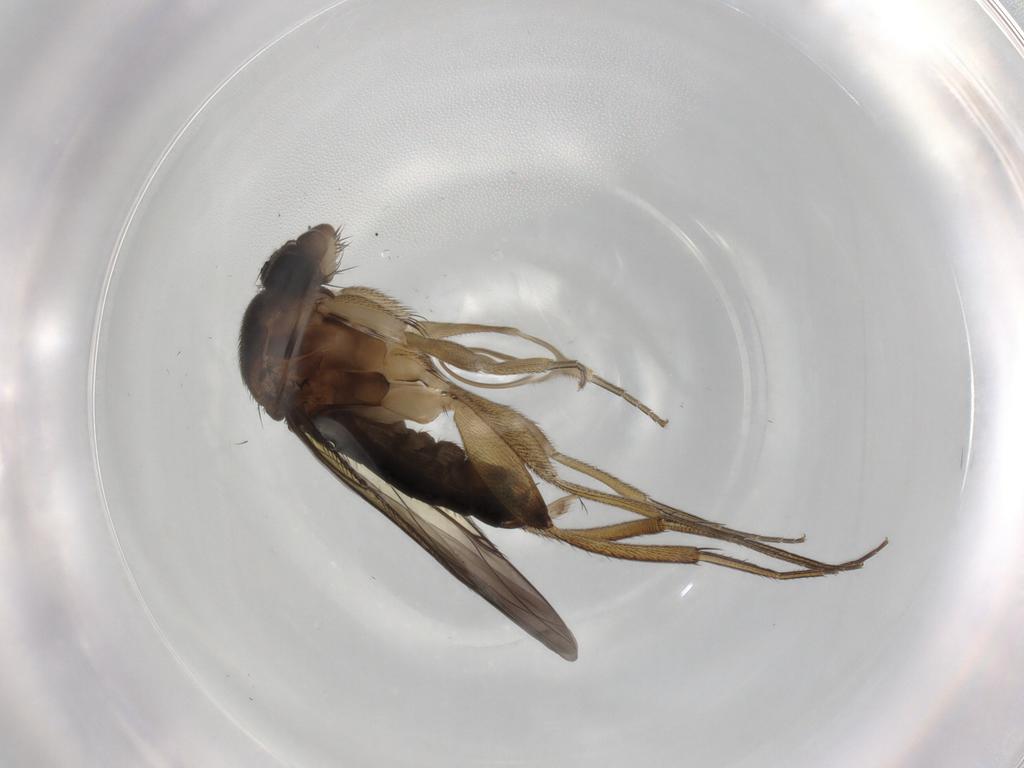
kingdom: Animalia
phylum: Arthropoda
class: Insecta
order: Diptera
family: Phoridae
